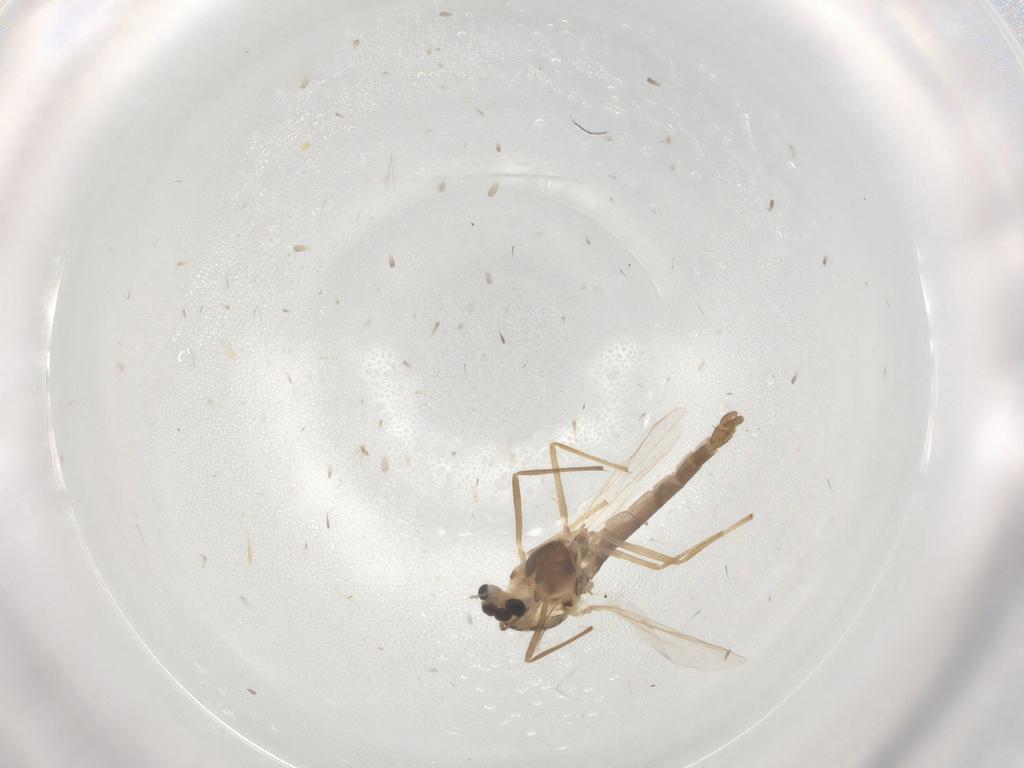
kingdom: Animalia
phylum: Arthropoda
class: Insecta
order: Diptera
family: Chironomidae
